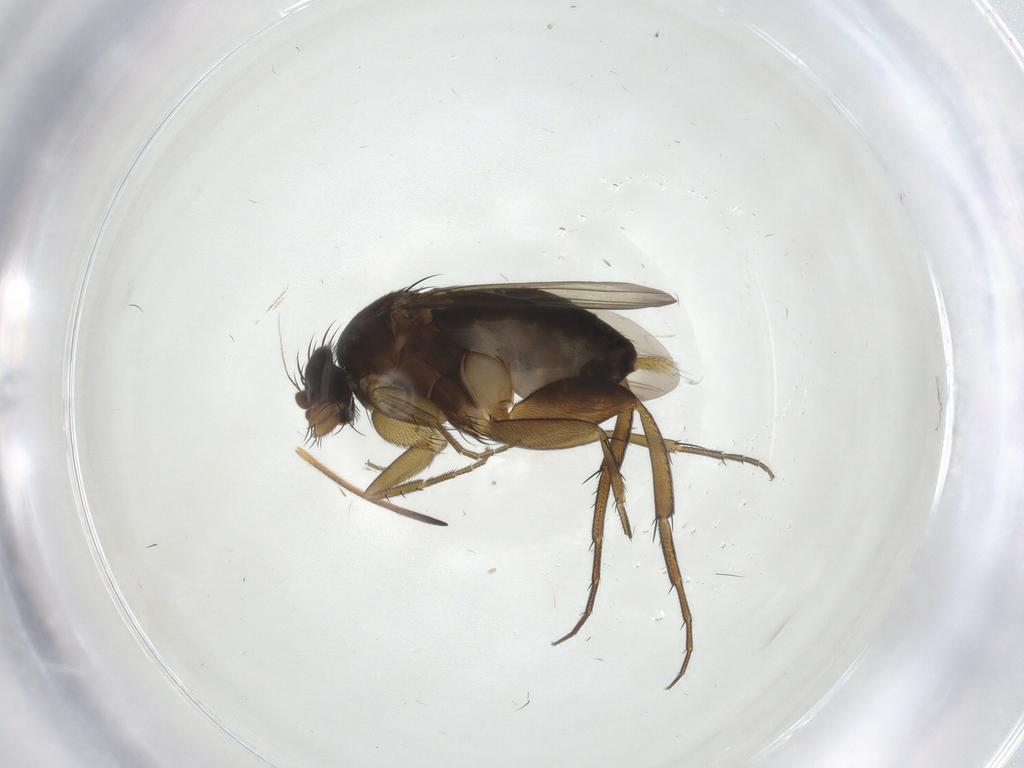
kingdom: Animalia
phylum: Arthropoda
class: Insecta
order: Diptera
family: Phoridae
